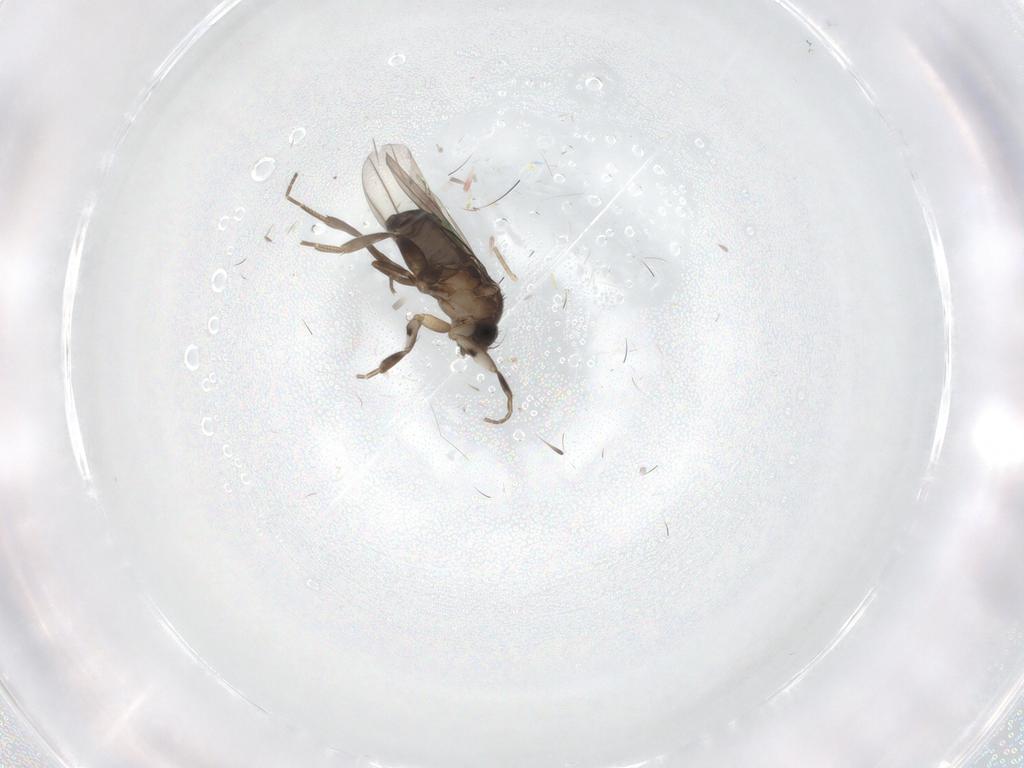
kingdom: Animalia
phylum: Arthropoda
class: Insecta
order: Diptera
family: Phoridae
